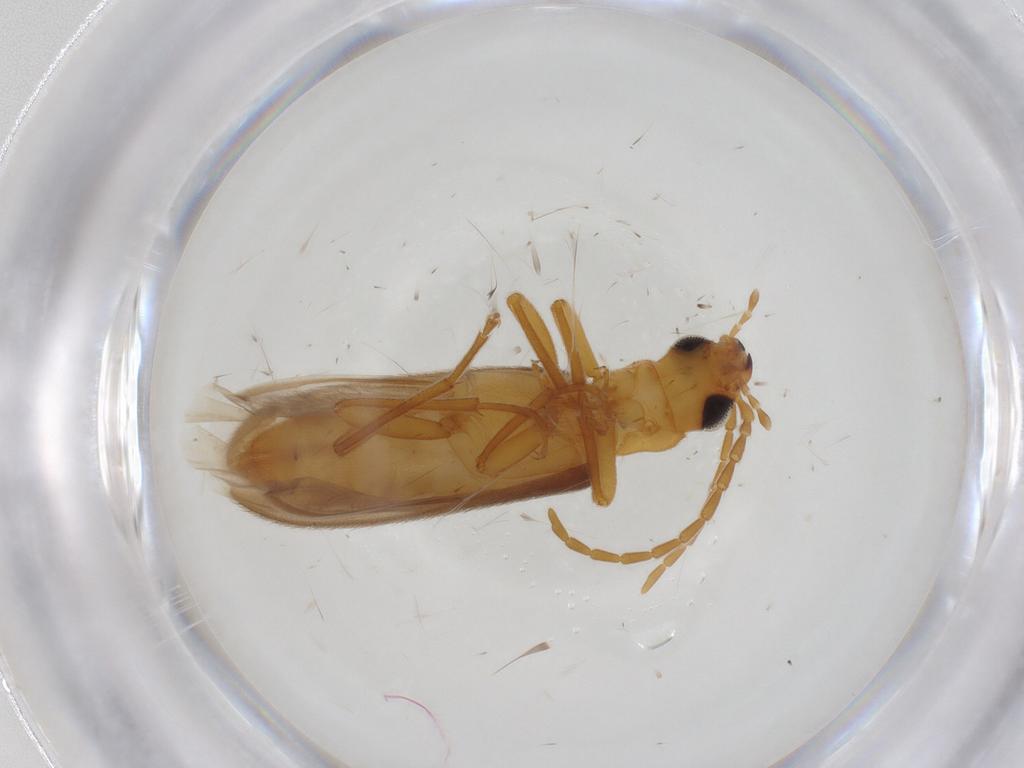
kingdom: Animalia
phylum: Arthropoda
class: Insecta
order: Coleoptera
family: Oedemeridae
